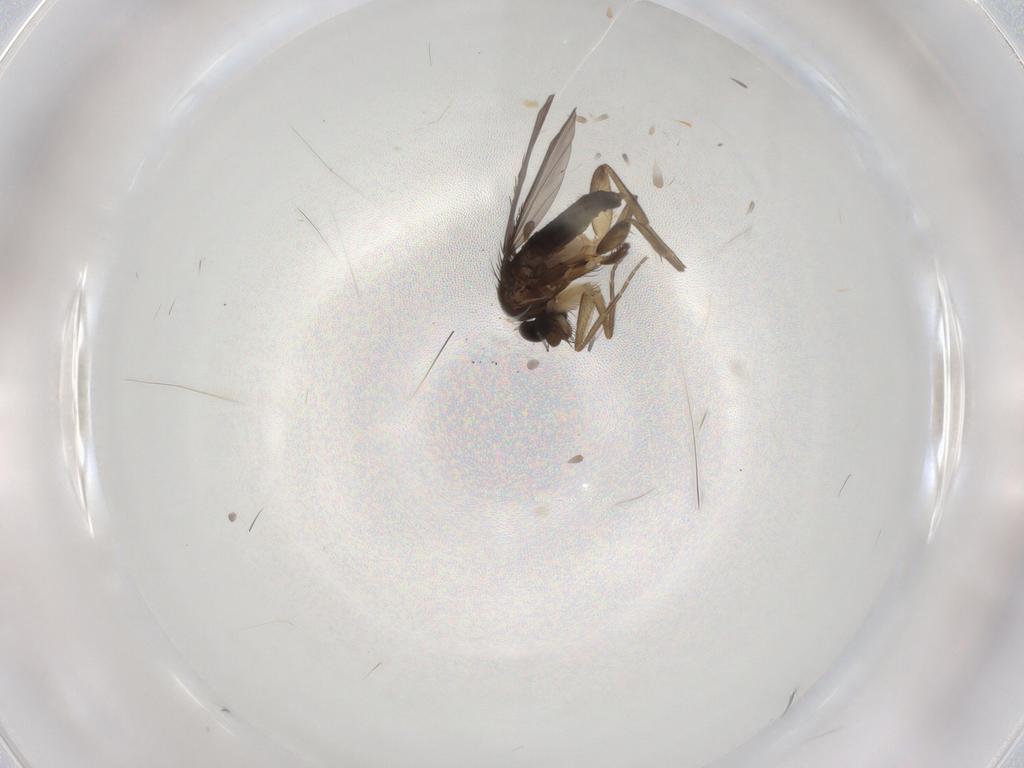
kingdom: Animalia
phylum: Arthropoda
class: Insecta
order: Diptera
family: Phoridae
